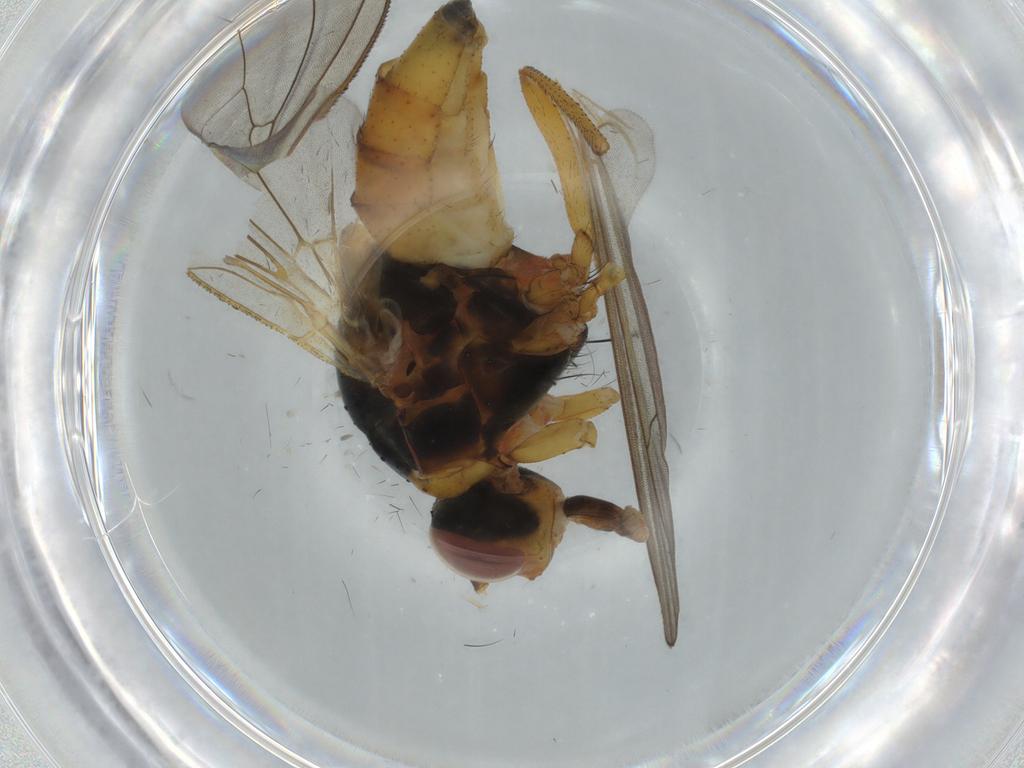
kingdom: Animalia
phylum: Arthropoda
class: Insecta
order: Diptera
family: Anthomyiidae
